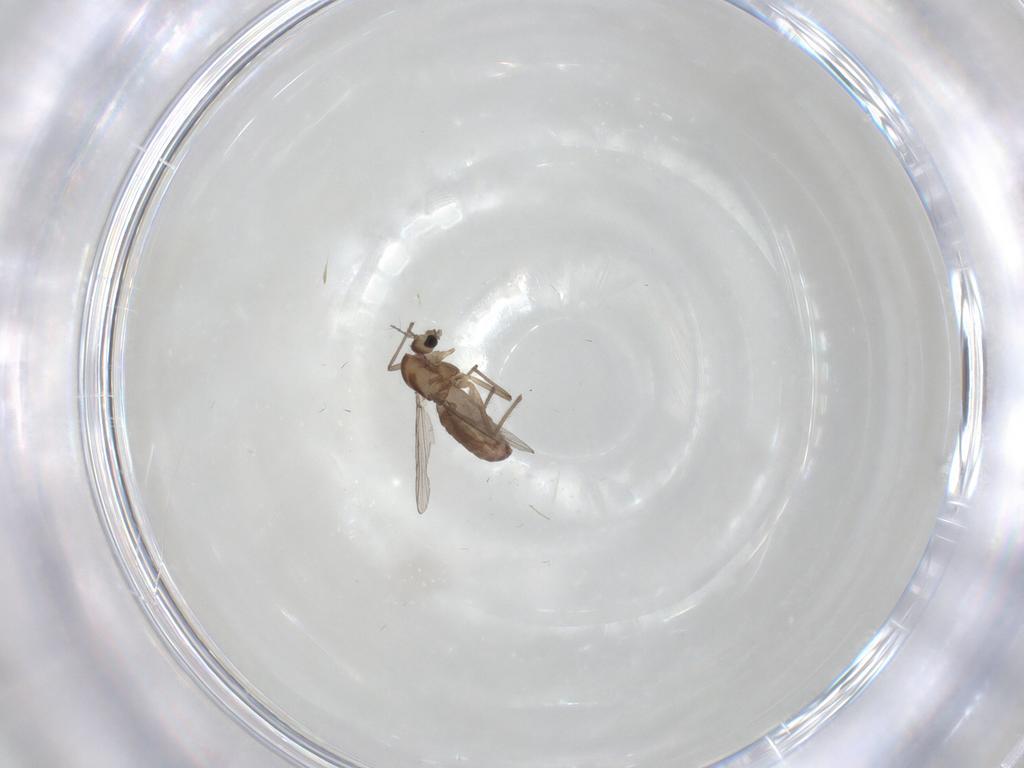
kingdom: Animalia
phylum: Arthropoda
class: Insecta
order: Diptera
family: Chironomidae
